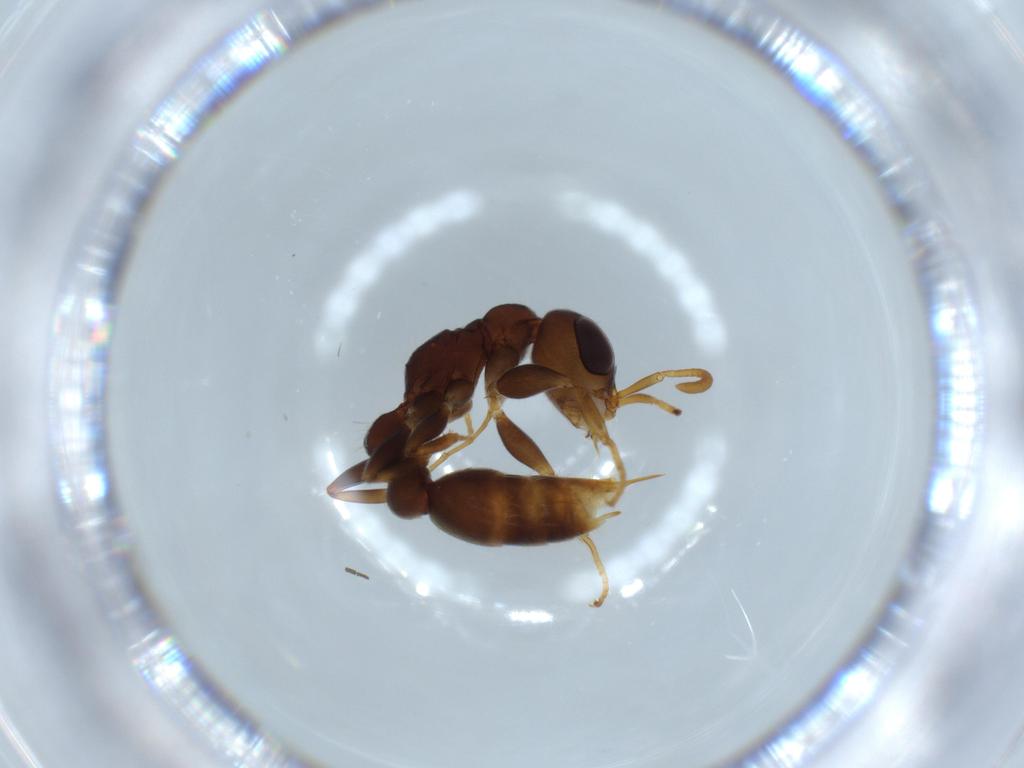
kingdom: Animalia
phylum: Arthropoda
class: Insecta
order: Hymenoptera
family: Formicidae
